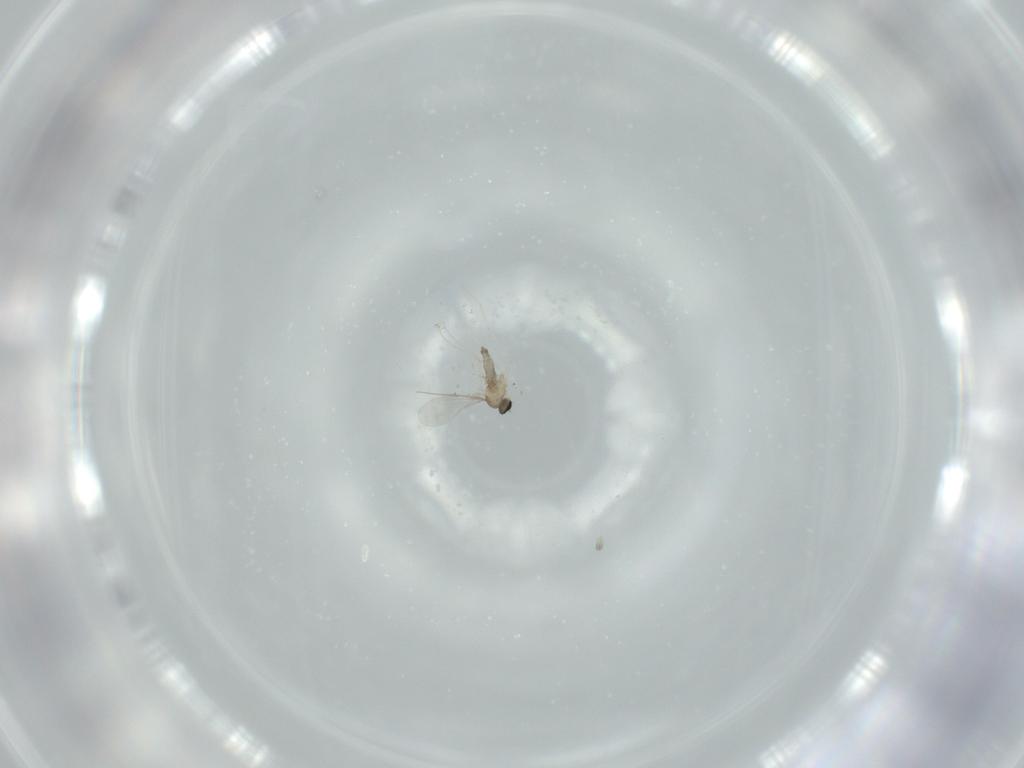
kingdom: Animalia
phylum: Arthropoda
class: Insecta
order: Diptera
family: Cecidomyiidae
